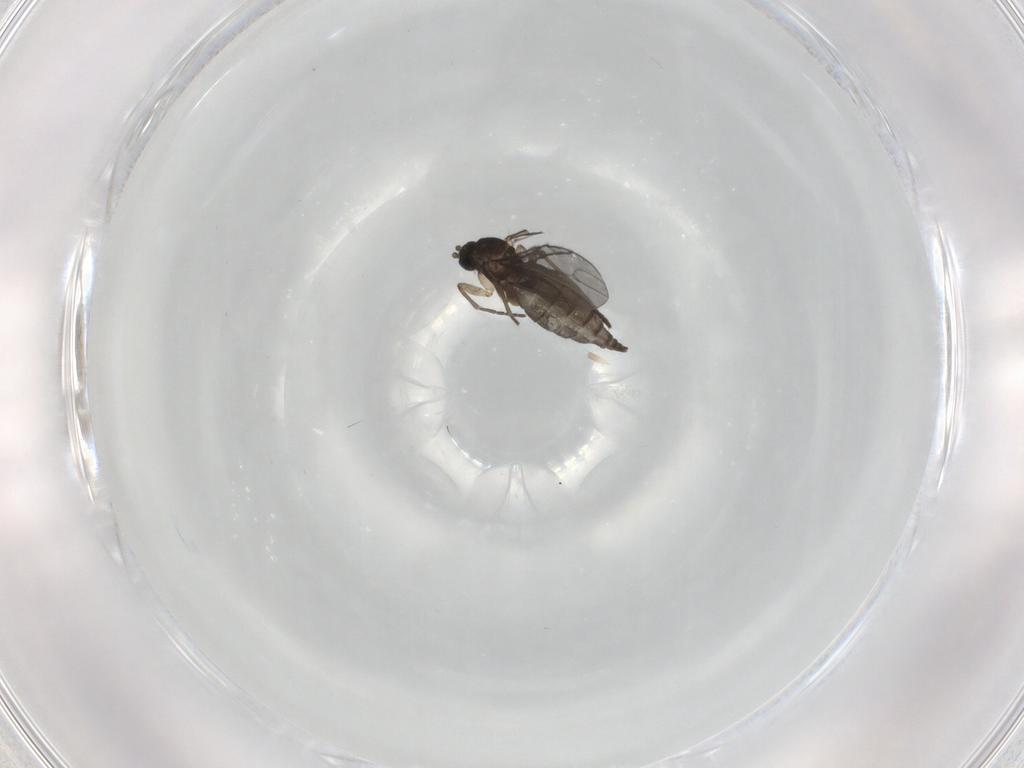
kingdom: Animalia
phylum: Arthropoda
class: Insecta
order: Diptera
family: Sciaridae
